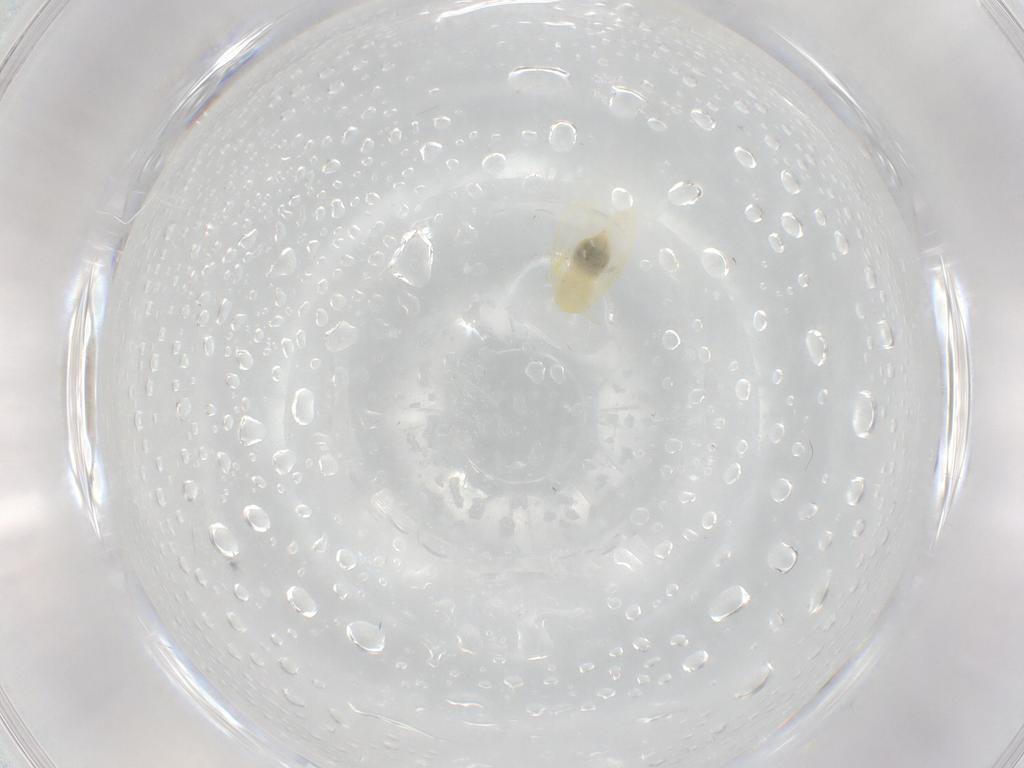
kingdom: Animalia
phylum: Arthropoda
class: Insecta
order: Hemiptera
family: Aleyrodidae
